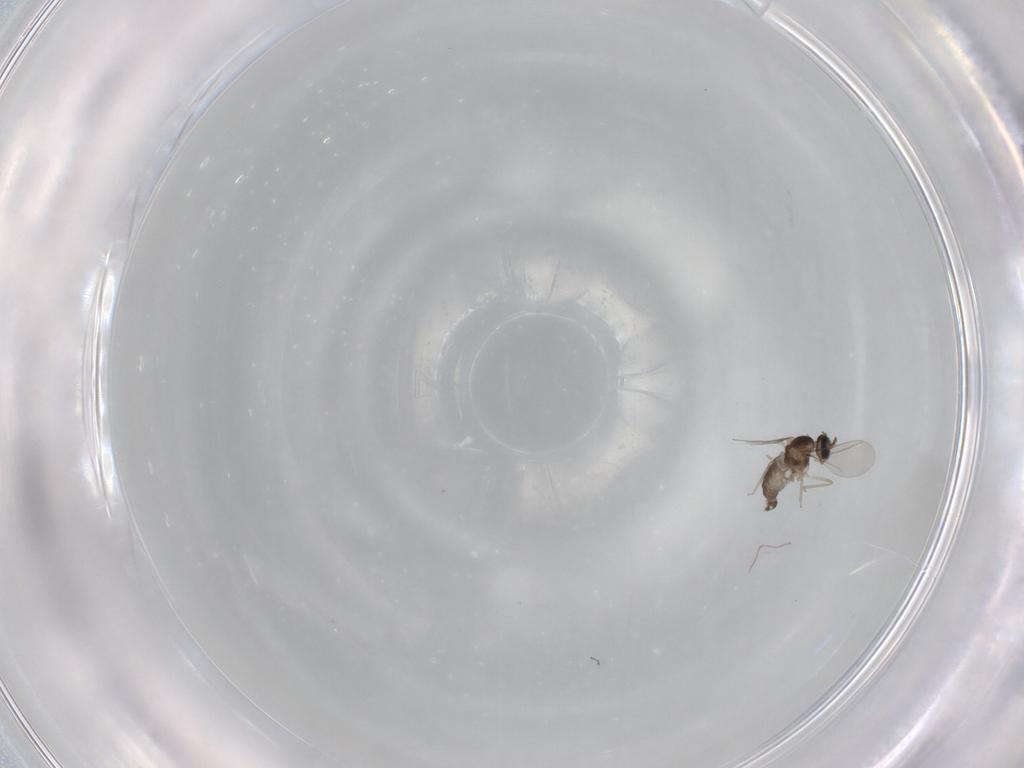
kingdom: Animalia
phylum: Arthropoda
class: Insecta
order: Diptera
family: Cecidomyiidae
